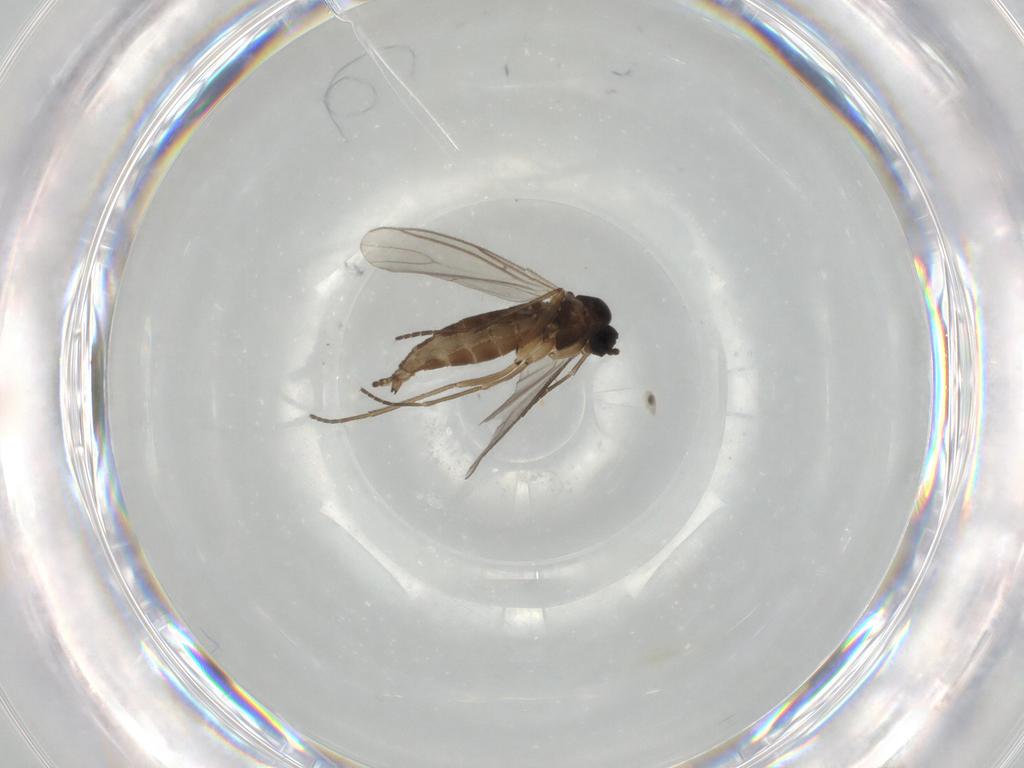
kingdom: Animalia
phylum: Arthropoda
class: Insecta
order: Diptera
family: Sciaridae
